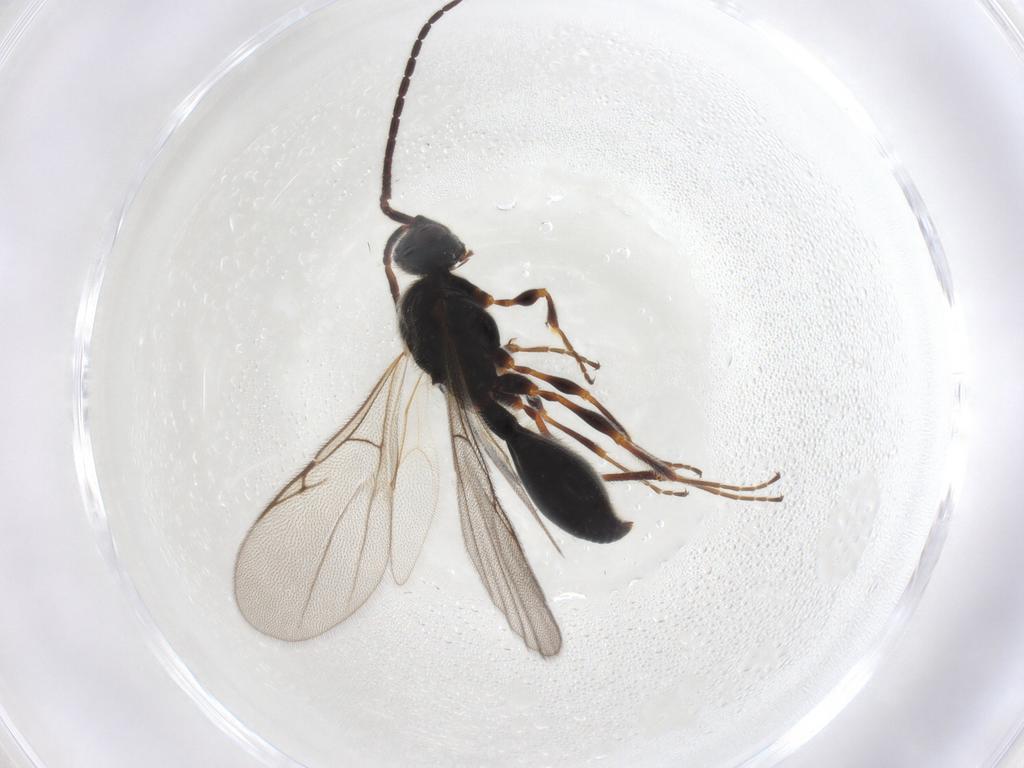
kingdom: Animalia
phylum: Arthropoda
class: Insecta
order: Hymenoptera
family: Diapriidae
